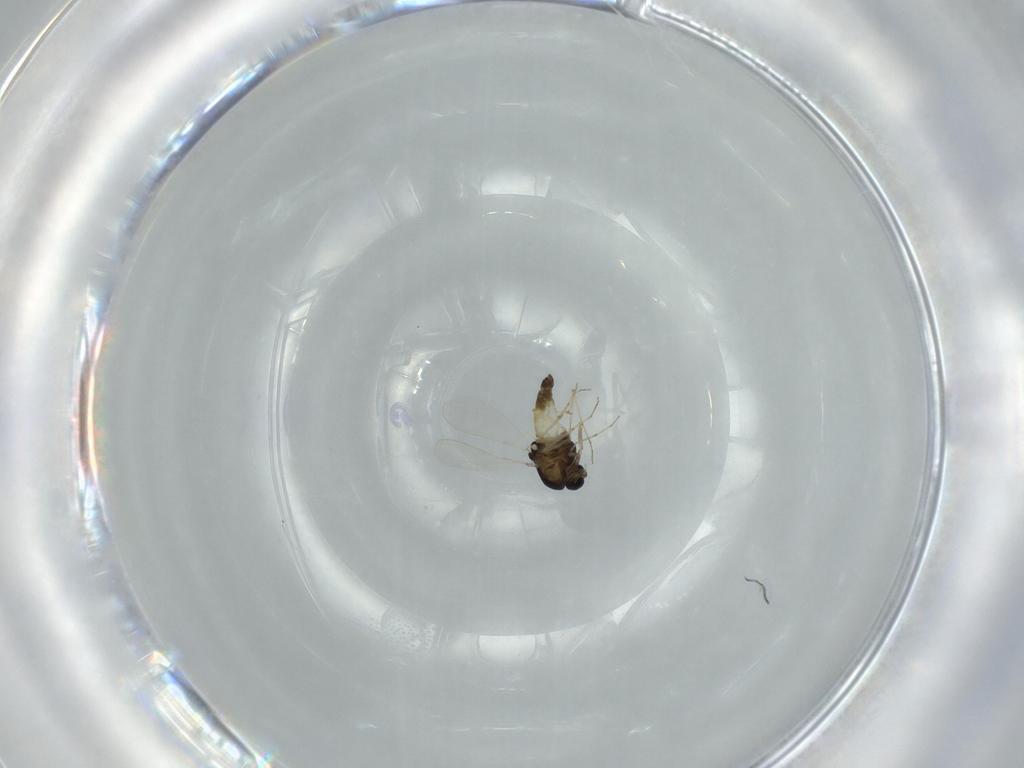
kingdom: Animalia
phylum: Arthropoda
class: Insecta
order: Diptera
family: Chironomidae
